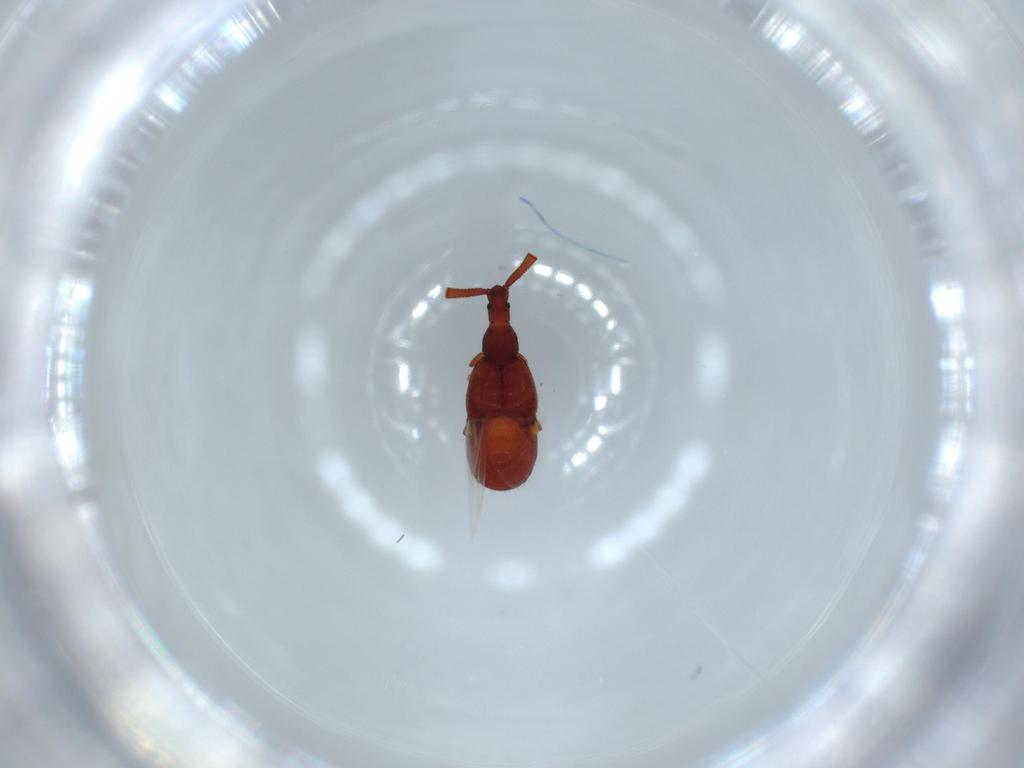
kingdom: Animalia
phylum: Arthropoda
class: Insecta
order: Coleoptera
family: Staphylinidae
